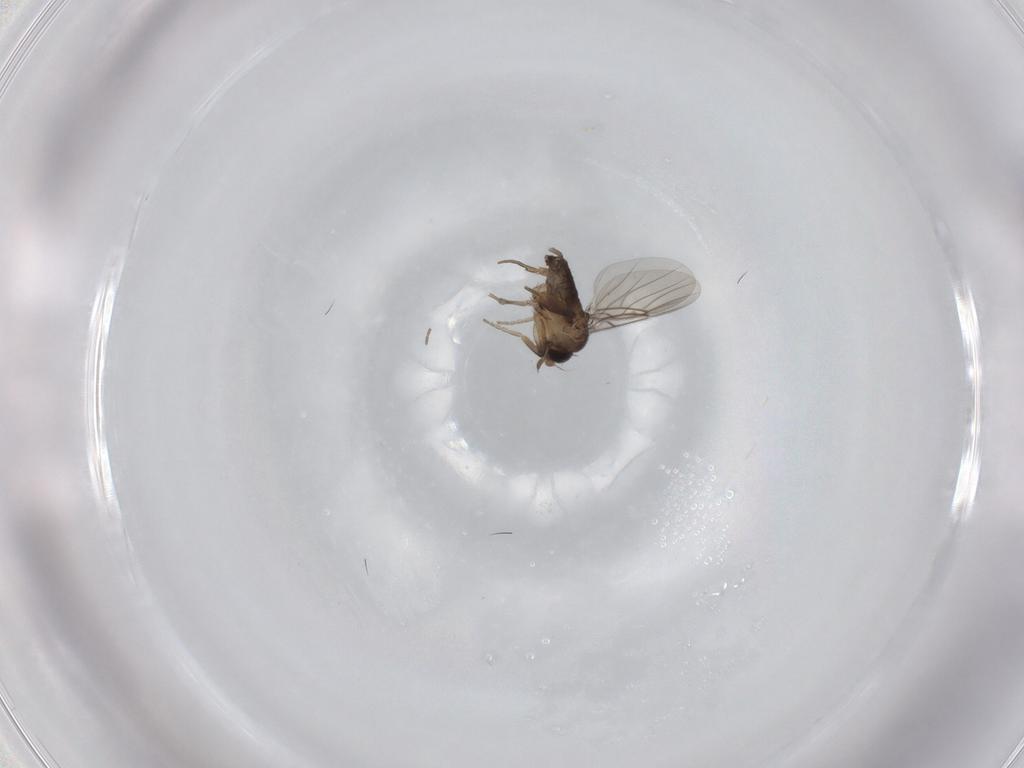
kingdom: Animalia
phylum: Arthropoda
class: Insecta
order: Diptera
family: Phoridae
